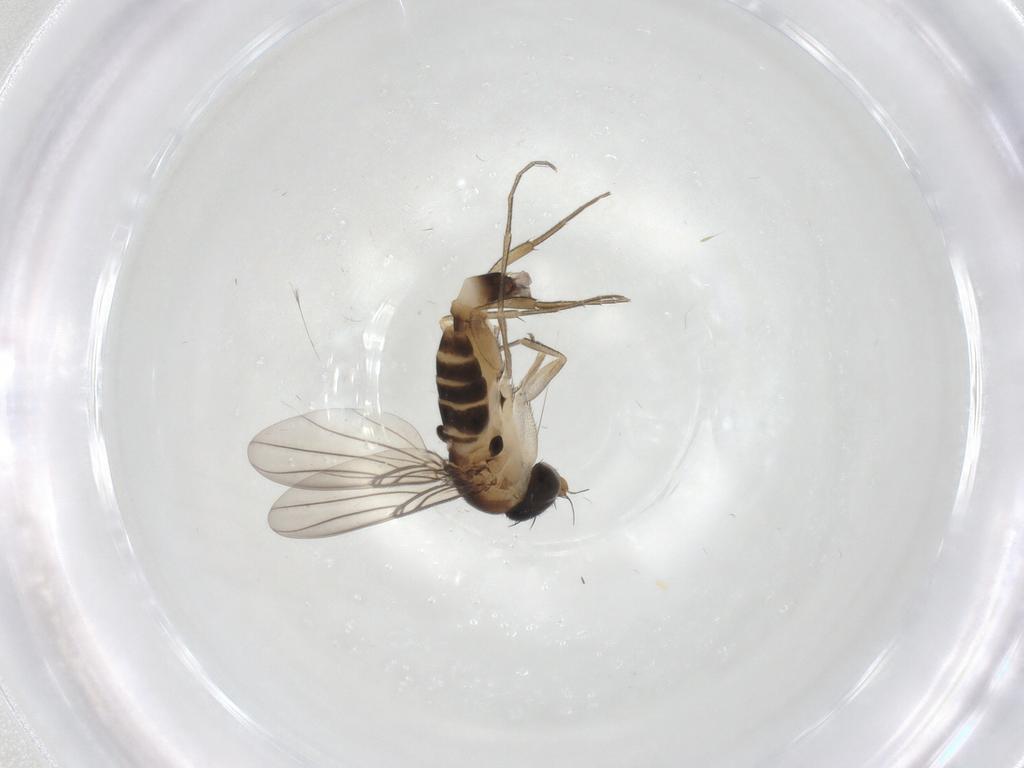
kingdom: Animalia
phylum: Arthropoda
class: Insecta
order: Diptera
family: Phoridae
